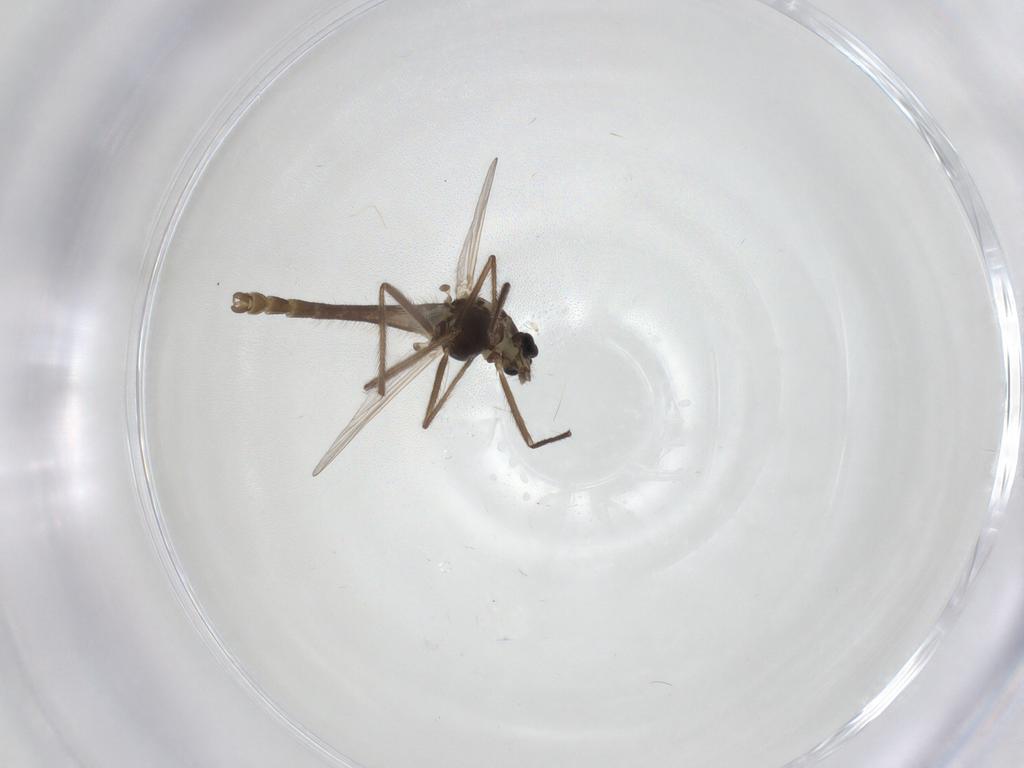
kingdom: Animalia
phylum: Arthropoda
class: Insecta
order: Diptera
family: Chironomidae
